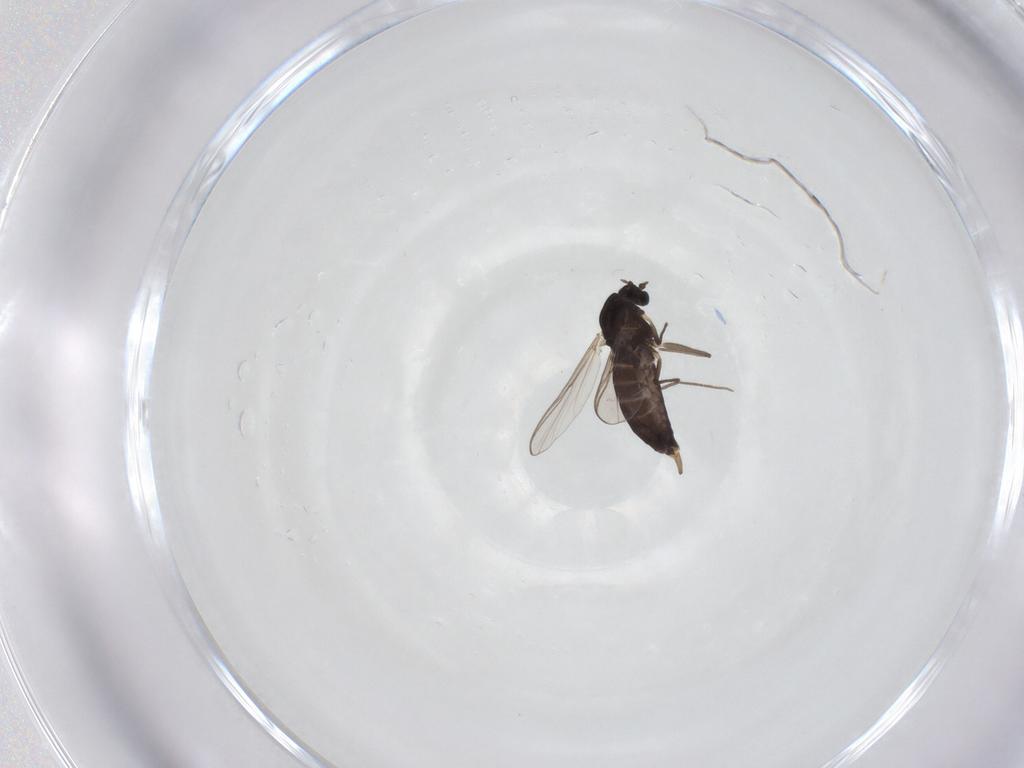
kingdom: Animalia
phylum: Arthropoda
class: Insecta
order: Diptera
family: Chironomidae
